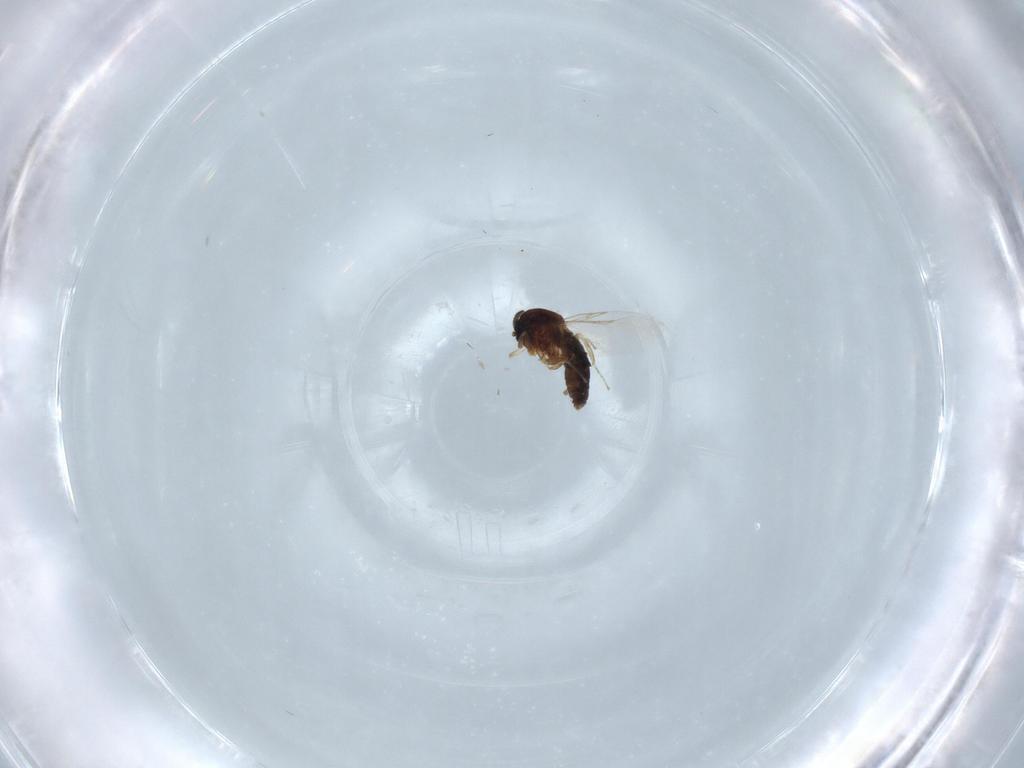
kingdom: Animalia
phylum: Arthropoda
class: Insecta
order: Diptera
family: Scatopsidae
